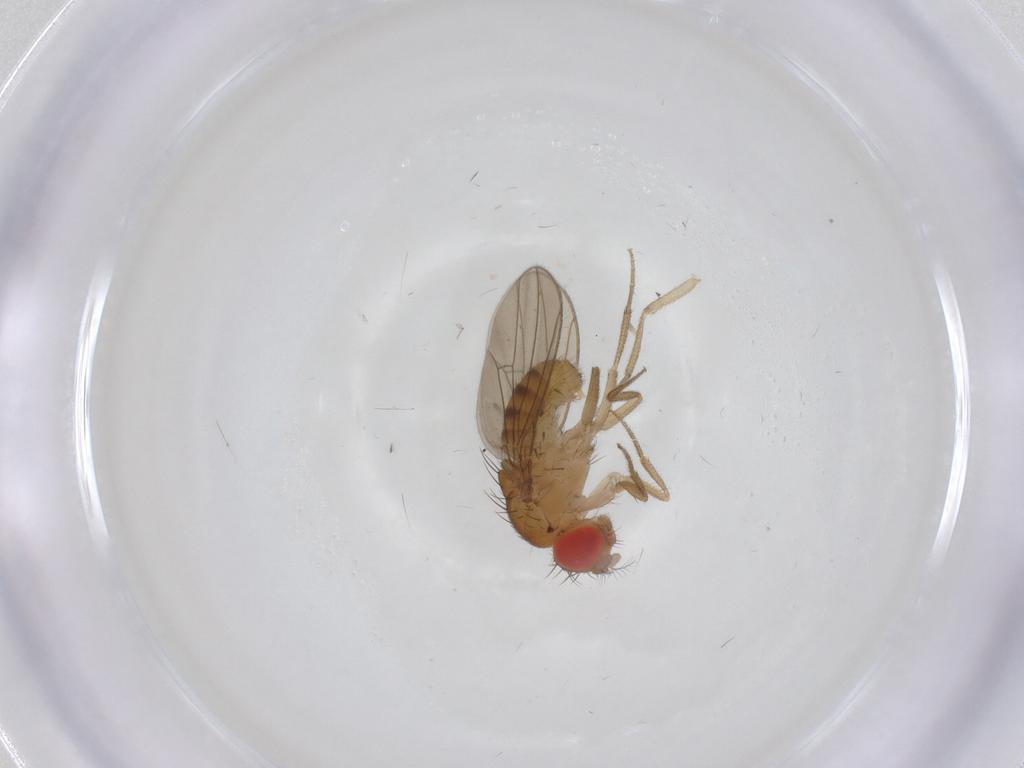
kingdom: Animalia
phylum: Arthropoda
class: Insecta
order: Diptera
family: Drosophilidae
